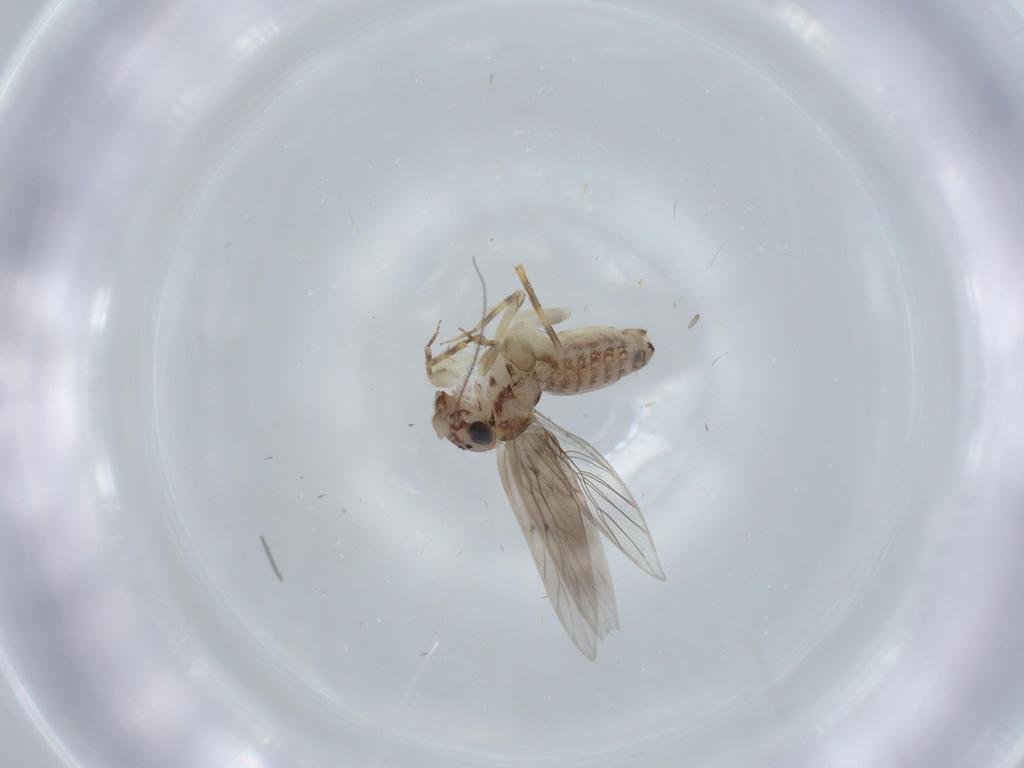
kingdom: Animalia
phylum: Arthropoda
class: Insecta
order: Psocodea
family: Lepidopsocidae
